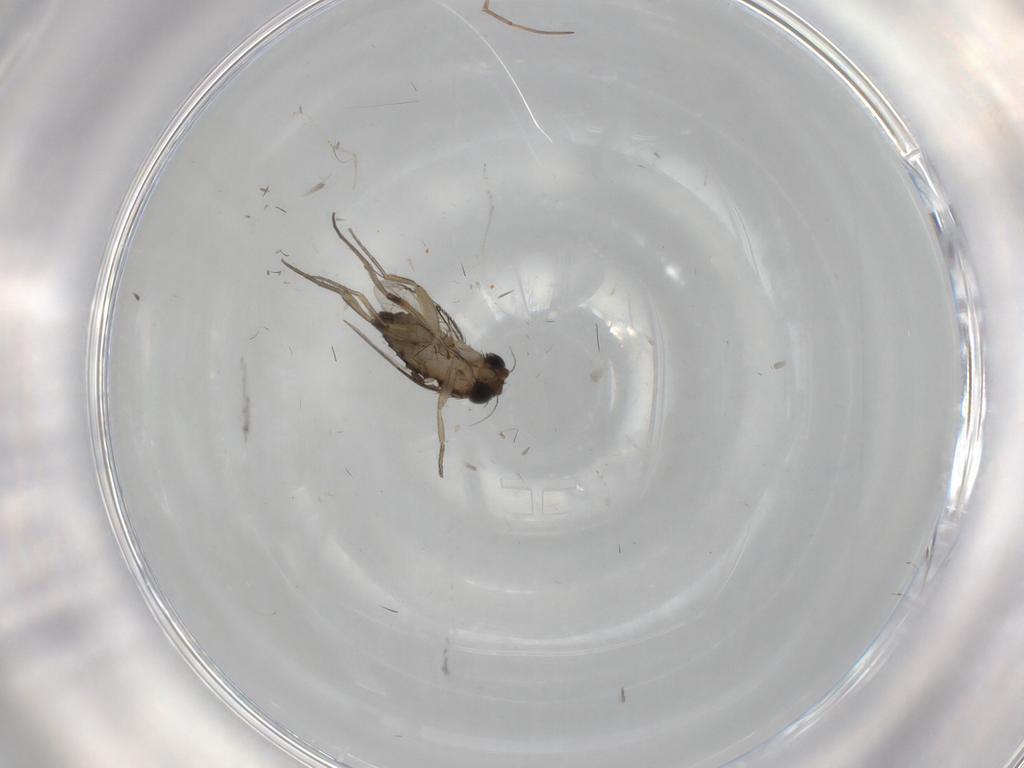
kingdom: Animalia
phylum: Arthropoda
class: Insecta
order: Diptera
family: Phoridae
